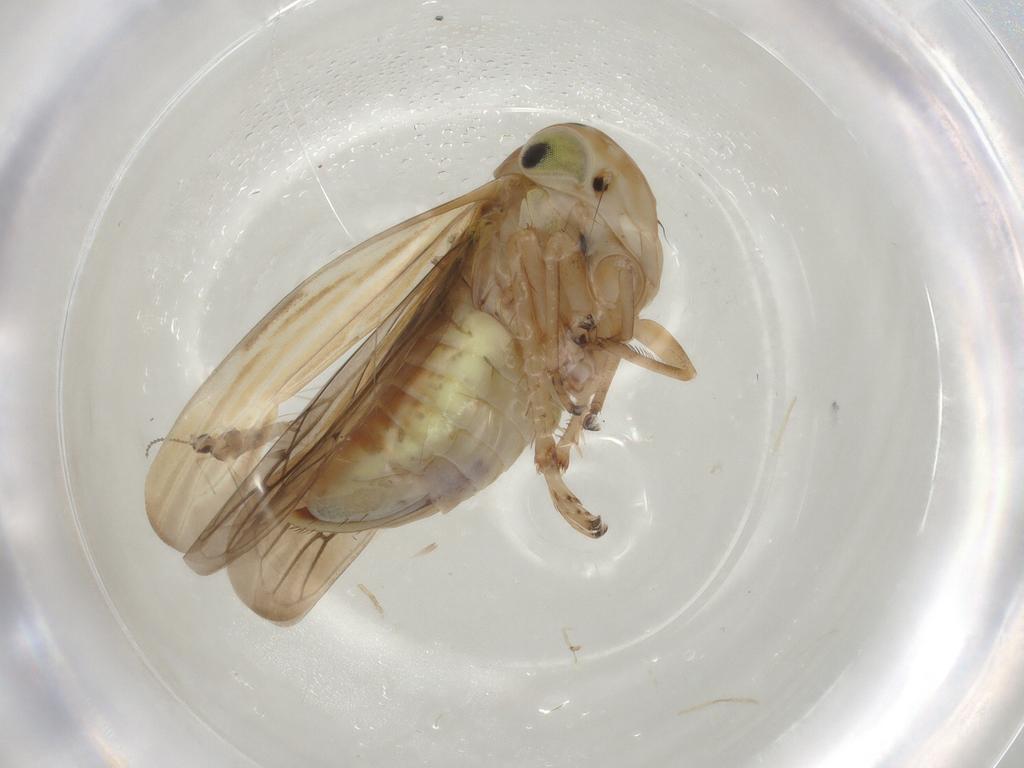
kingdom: Animalia
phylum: Arthropoda
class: Insecta
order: Hemiptera
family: Cicadellidae
